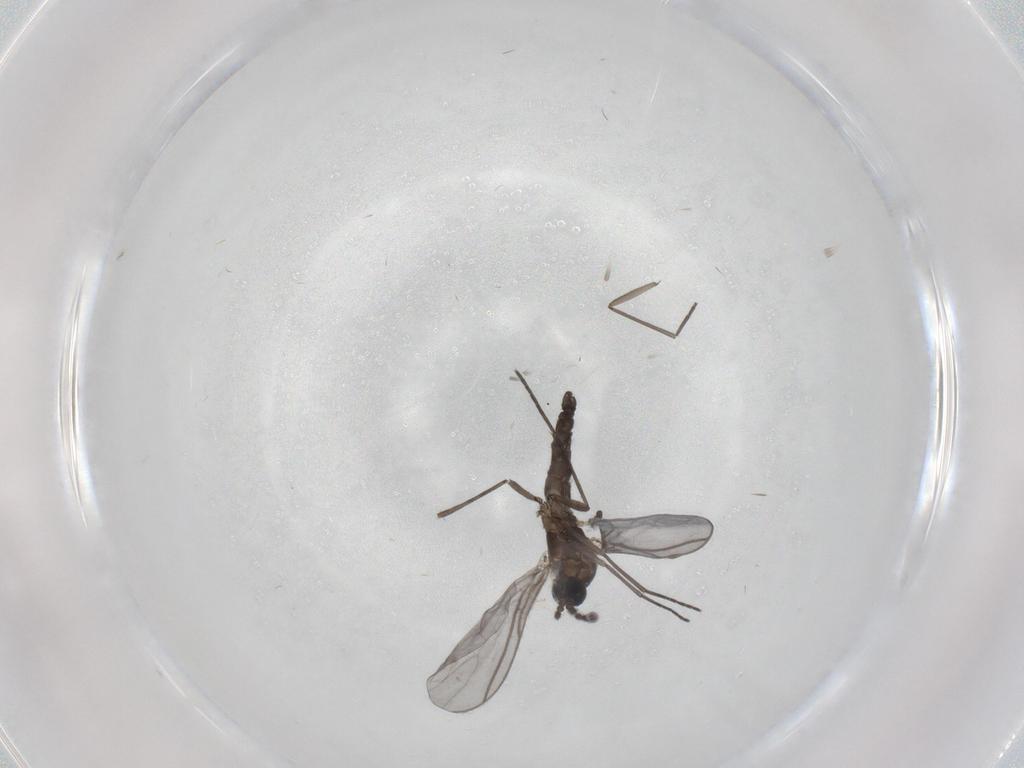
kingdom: Animalia
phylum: Arthropoda
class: Insecta
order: Diptera
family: Sciaridae
